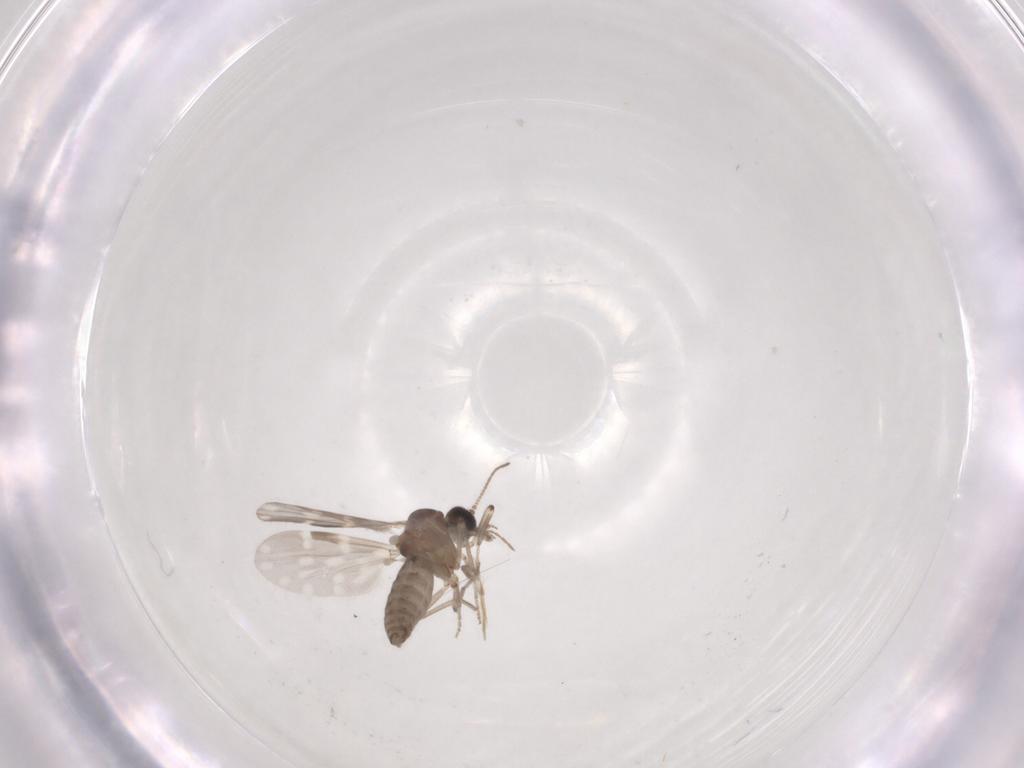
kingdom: Animalia
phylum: Arthropoda
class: Insecta
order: Diptera
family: Ceratopogonidae
